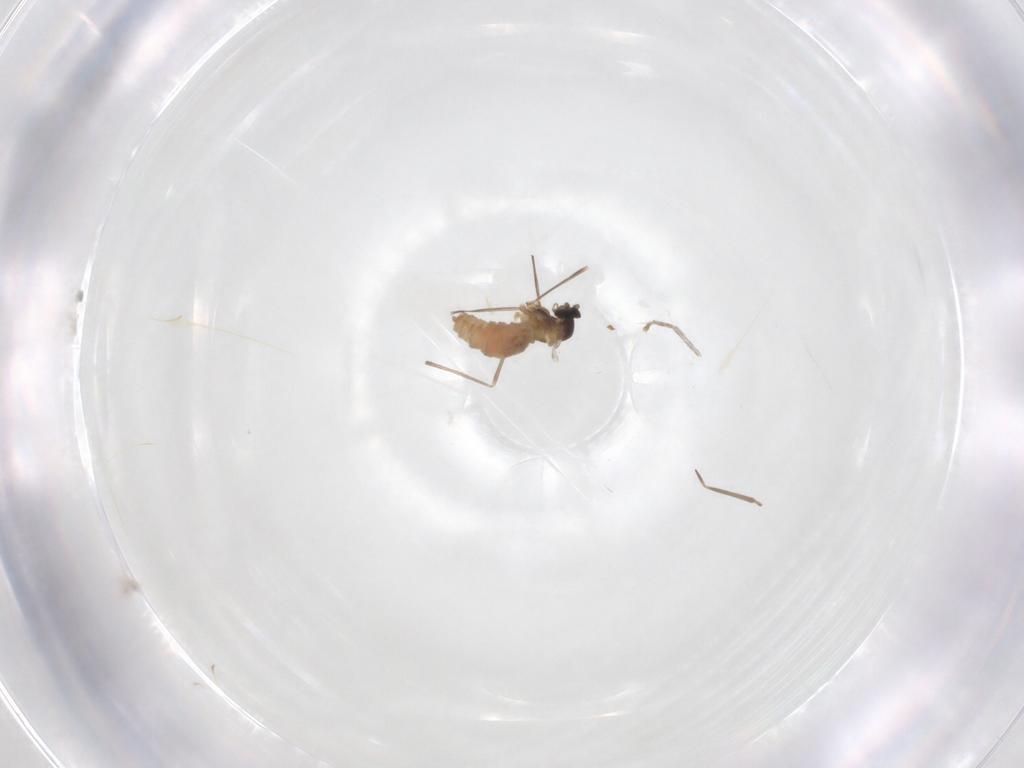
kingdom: Animalia
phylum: Arthropoda
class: Insecta
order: Diptera
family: Cecidomyiidae
